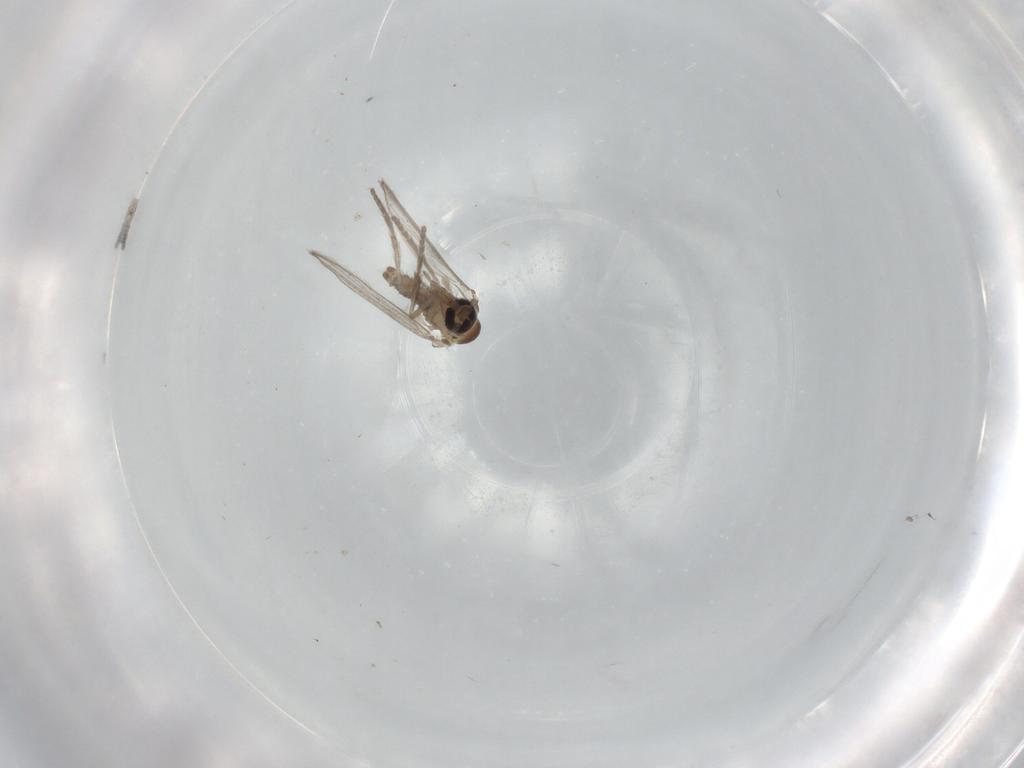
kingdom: Animalia
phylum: Arthropoda
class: Insecta
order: Diptera
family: Psychodidae
